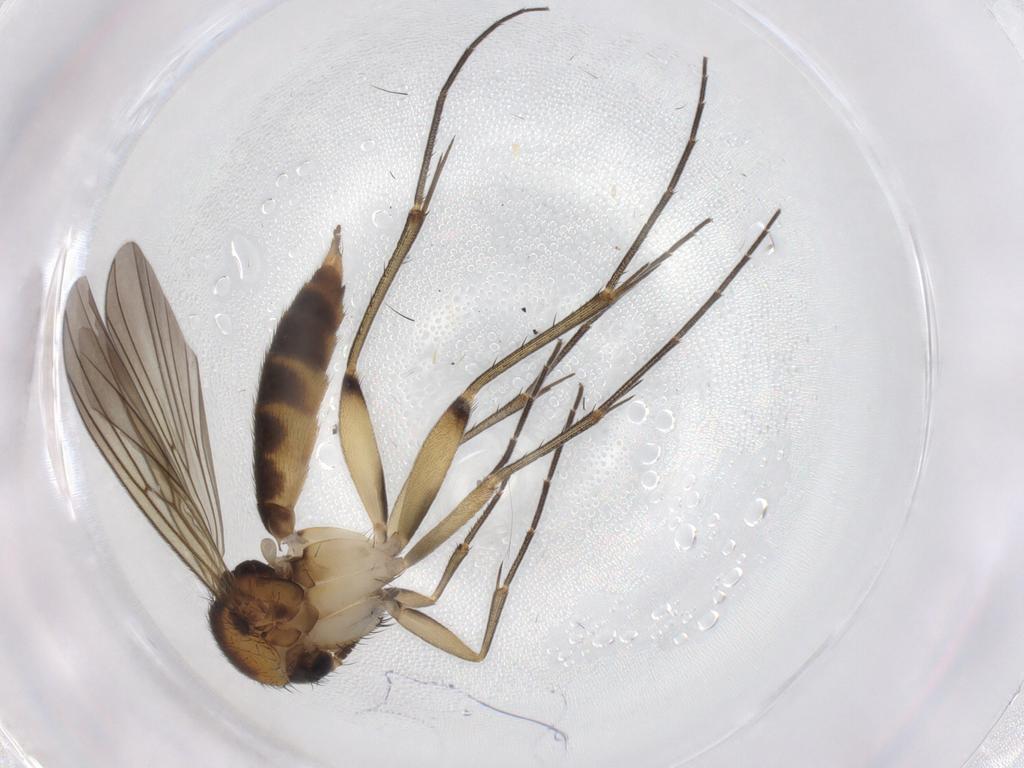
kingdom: Animalia
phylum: Arthropoda
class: Insecta
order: Diptera
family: Mycetophilidae
